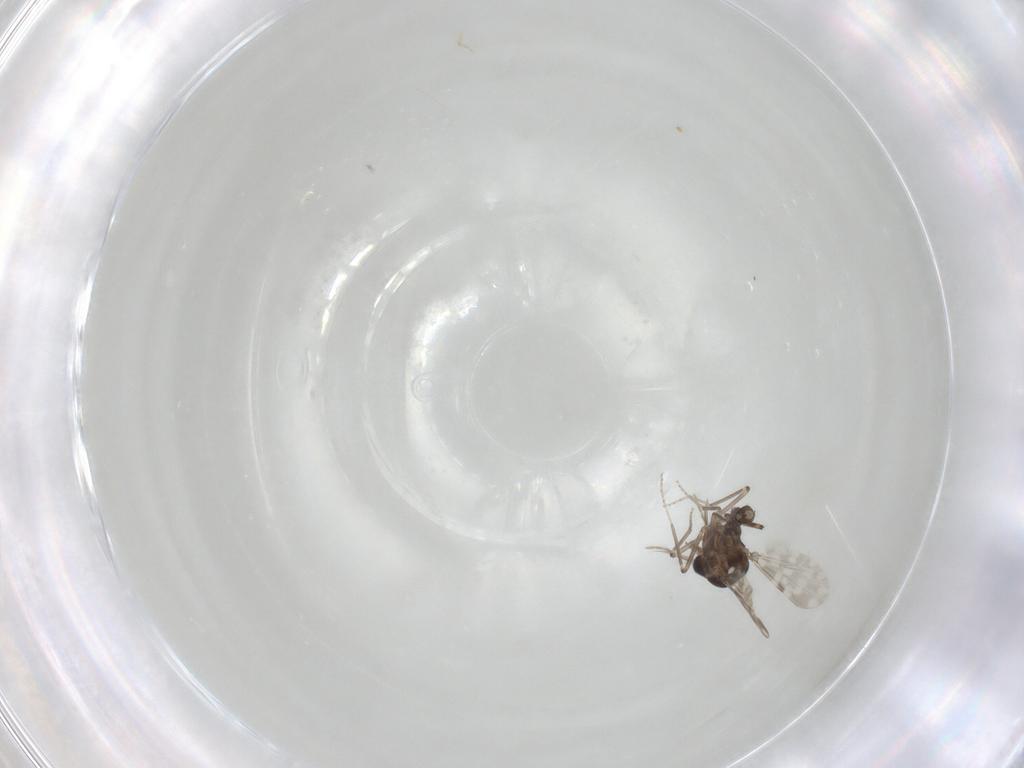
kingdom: Animalia
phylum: Arthropoda
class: Insecta
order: Diptera
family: Ceratopogonidae
